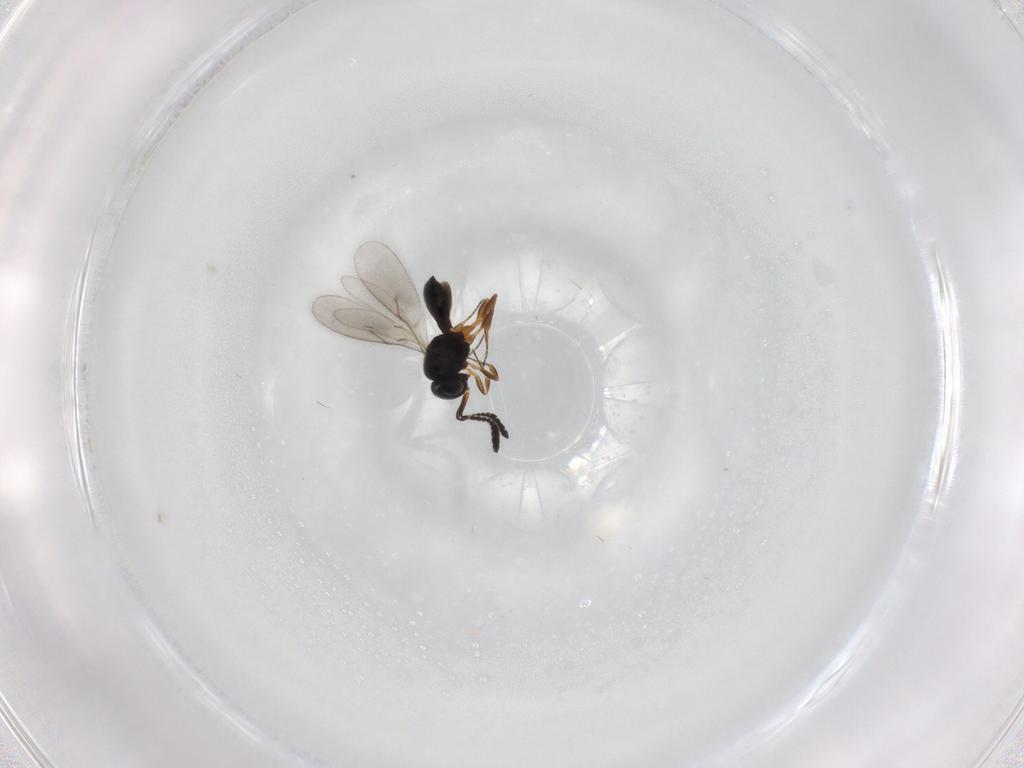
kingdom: Animalia
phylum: Arthropoda
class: Insecta
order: Hymenoptera
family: Scelionidae
